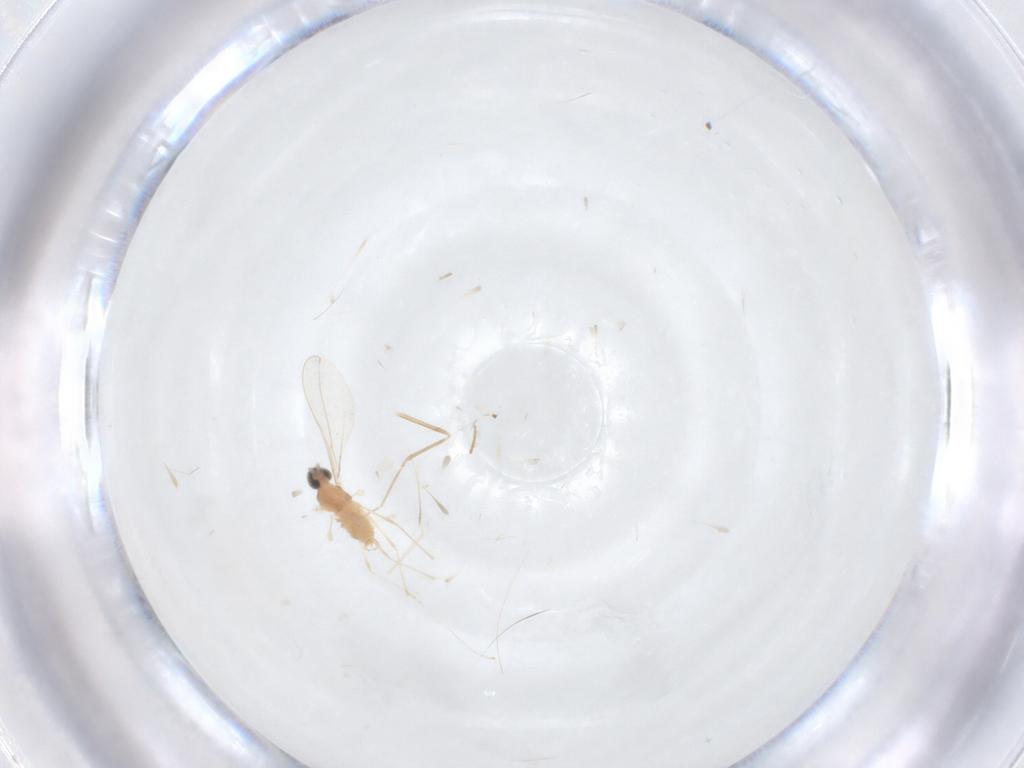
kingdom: Animalia
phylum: Arthropoda
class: Insecta
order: Diptera
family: Cecidomyiidae
